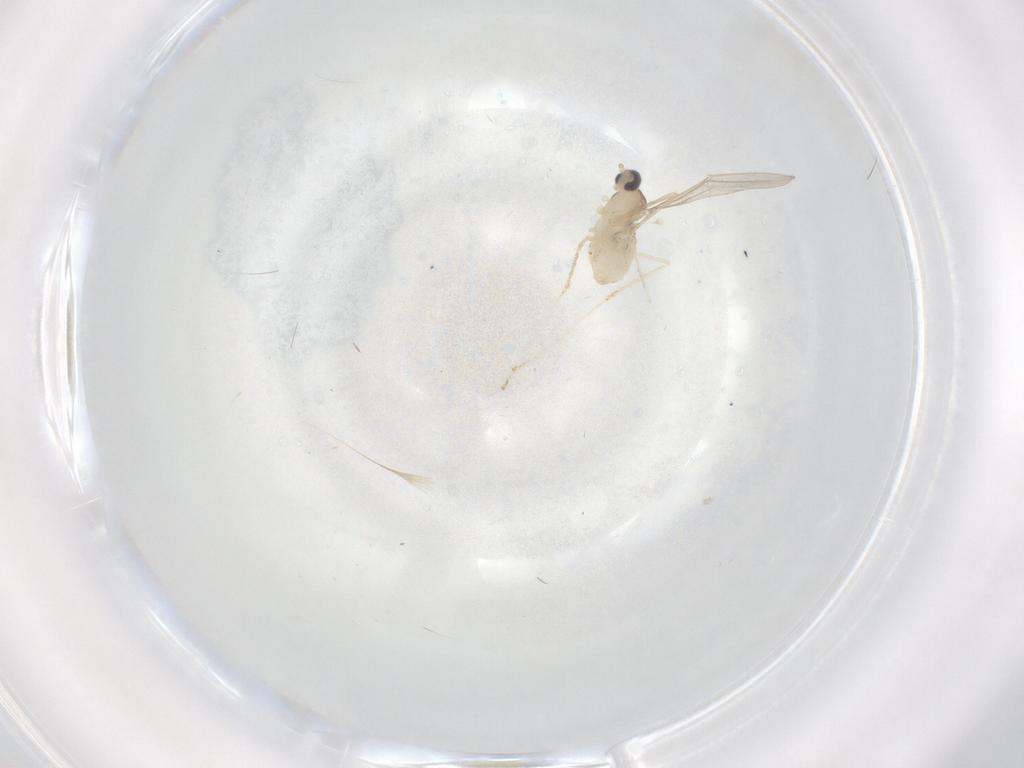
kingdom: Animalia
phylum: Arthropoda
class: Insecta
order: Diptera
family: Cecidomyiidae
